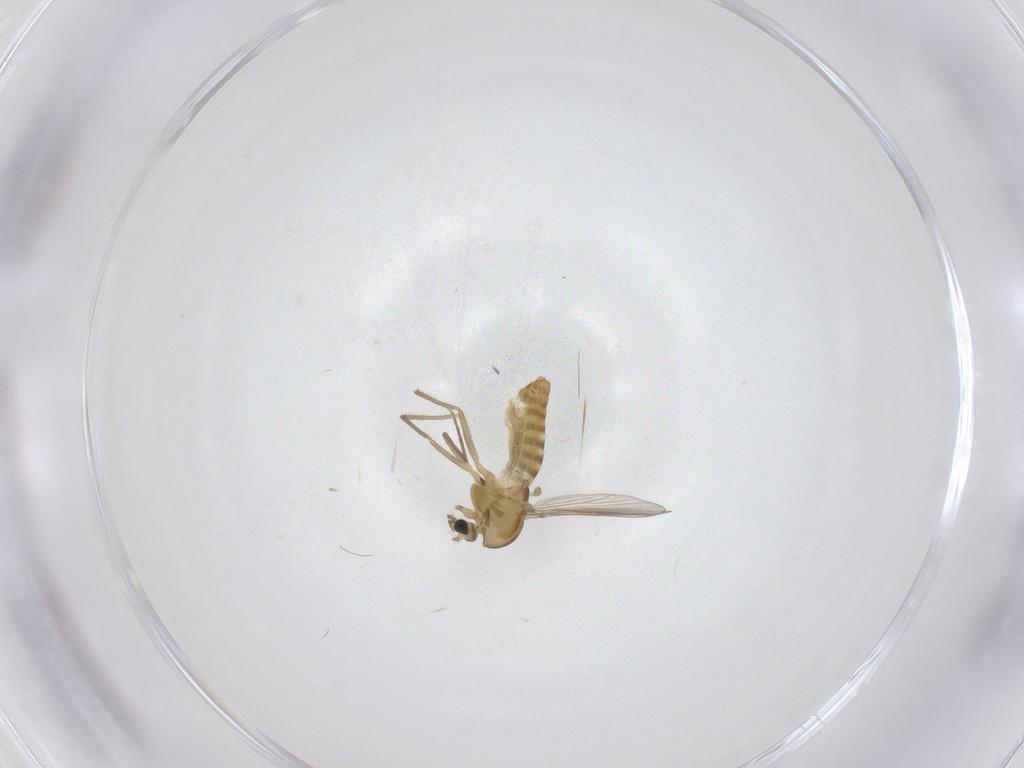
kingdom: Animalia
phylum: Arthropoda
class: Insecta
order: Diptera
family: Chironomidae
